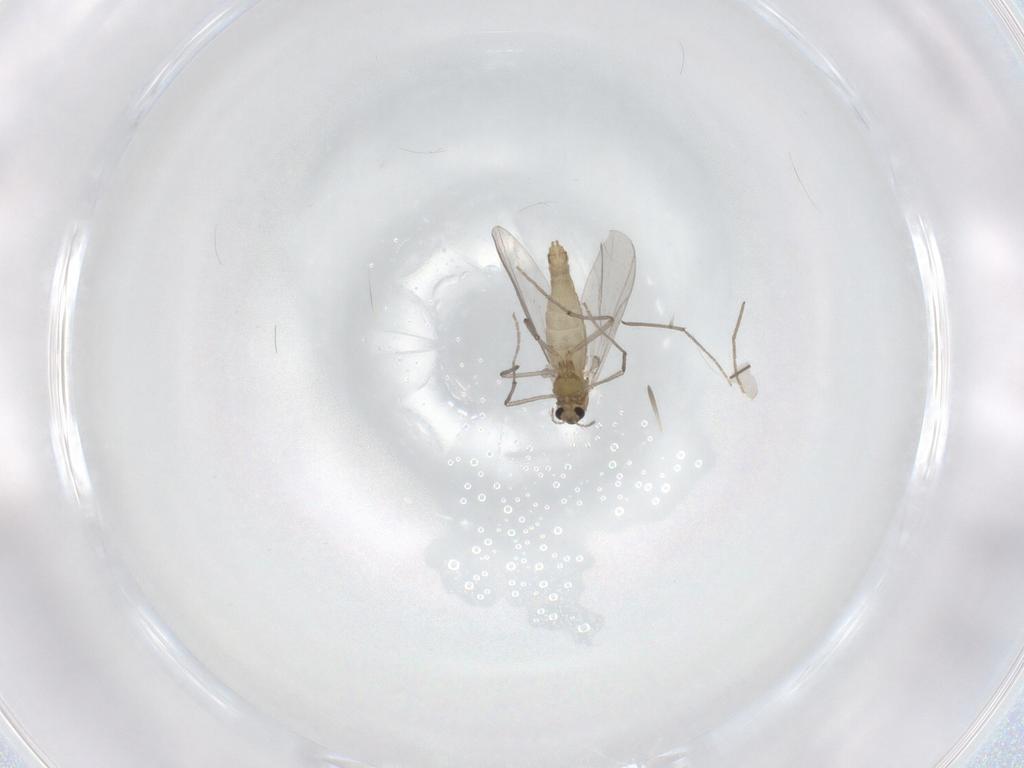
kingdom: Animalia
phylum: Arthropoda
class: Insecta
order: Diptera
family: Chironomidae
